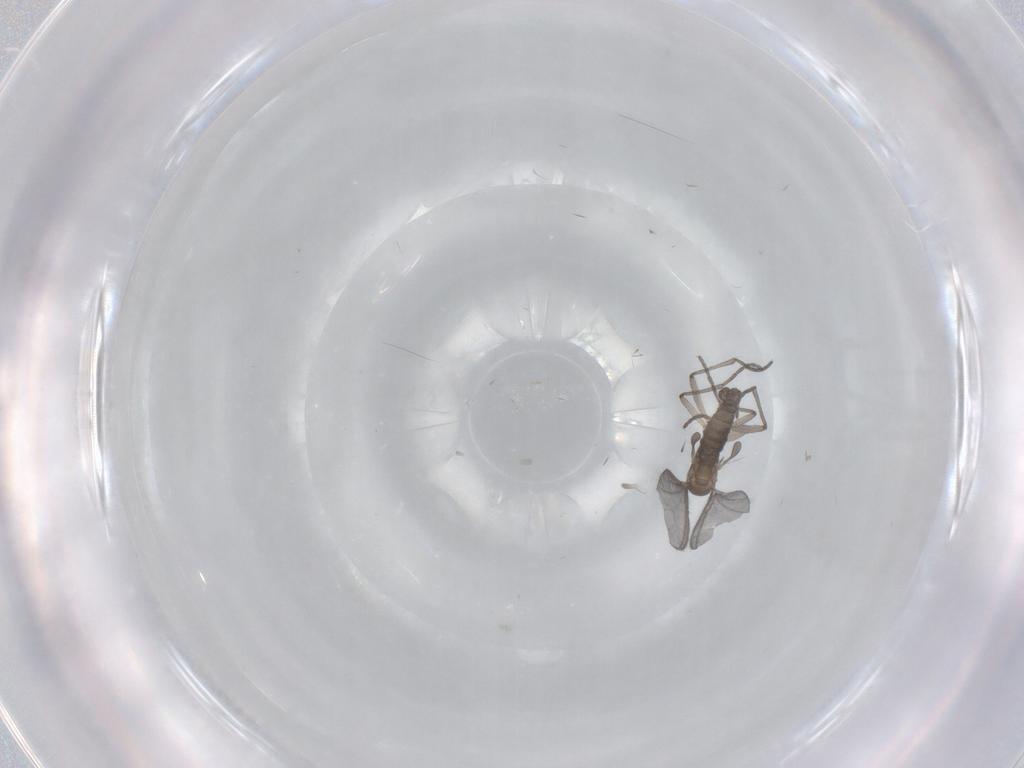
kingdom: Animalia
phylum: Arthropoda
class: Insecta
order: Diptera
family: Sciaridae
